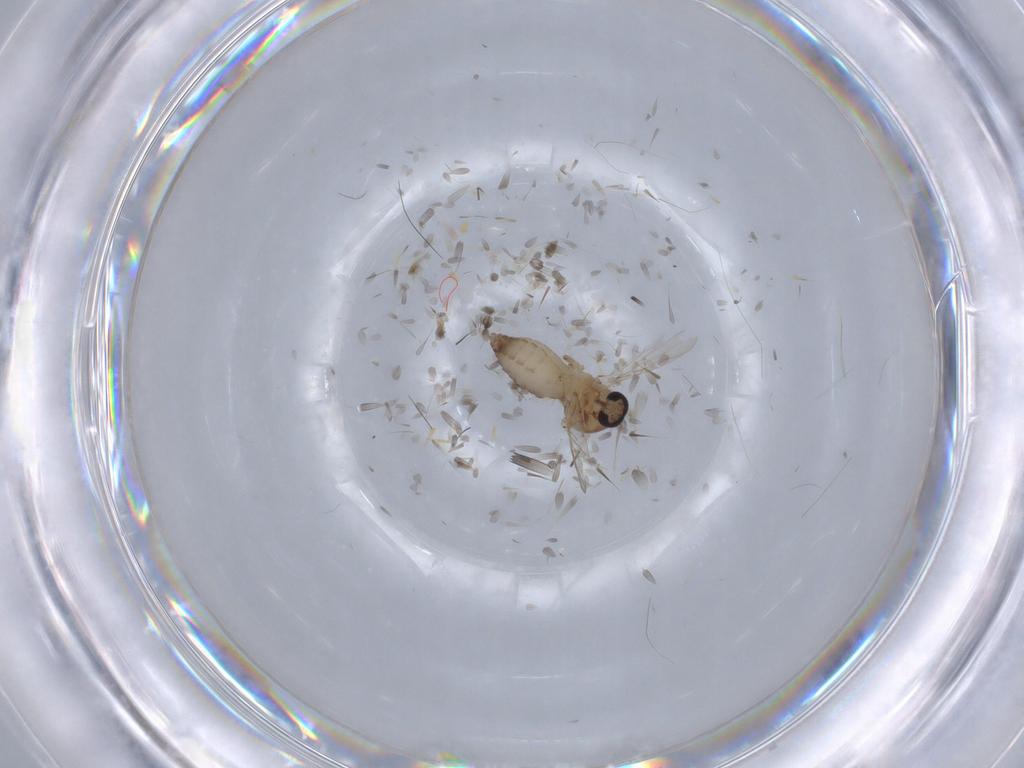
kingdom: Animalia
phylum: Arthropoda
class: Insecta
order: Diptera
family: Ceratopogonidae
